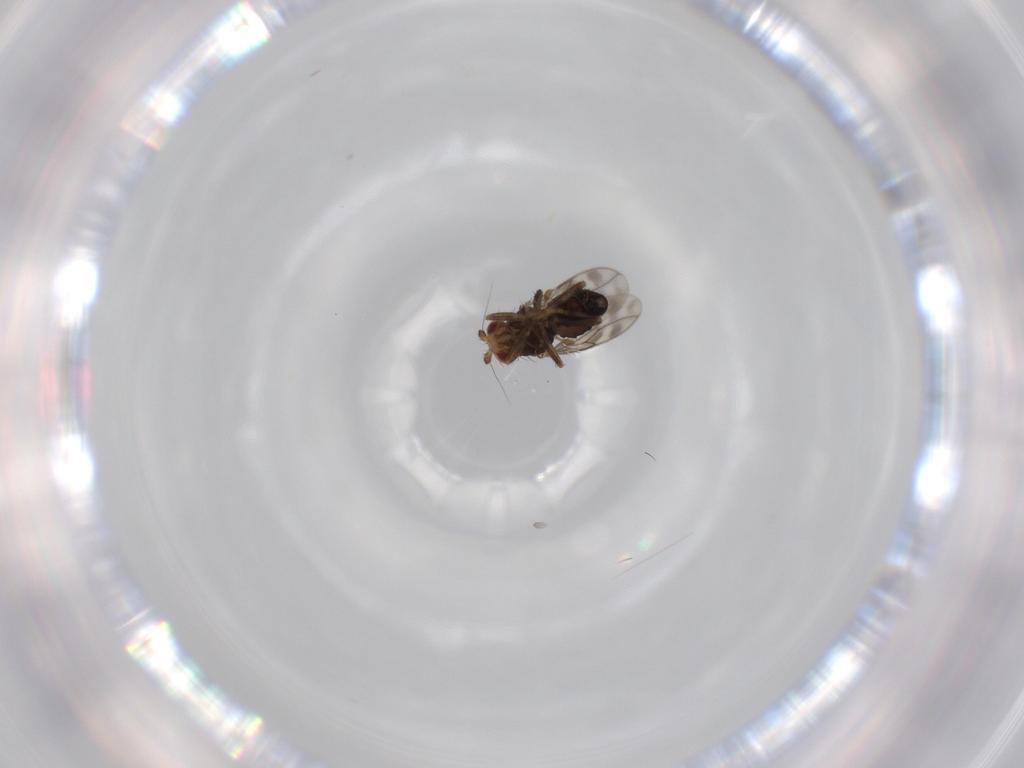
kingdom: Animalia
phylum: Arthropoda
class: Insecta
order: Diptera
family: Sphaeroceridae
